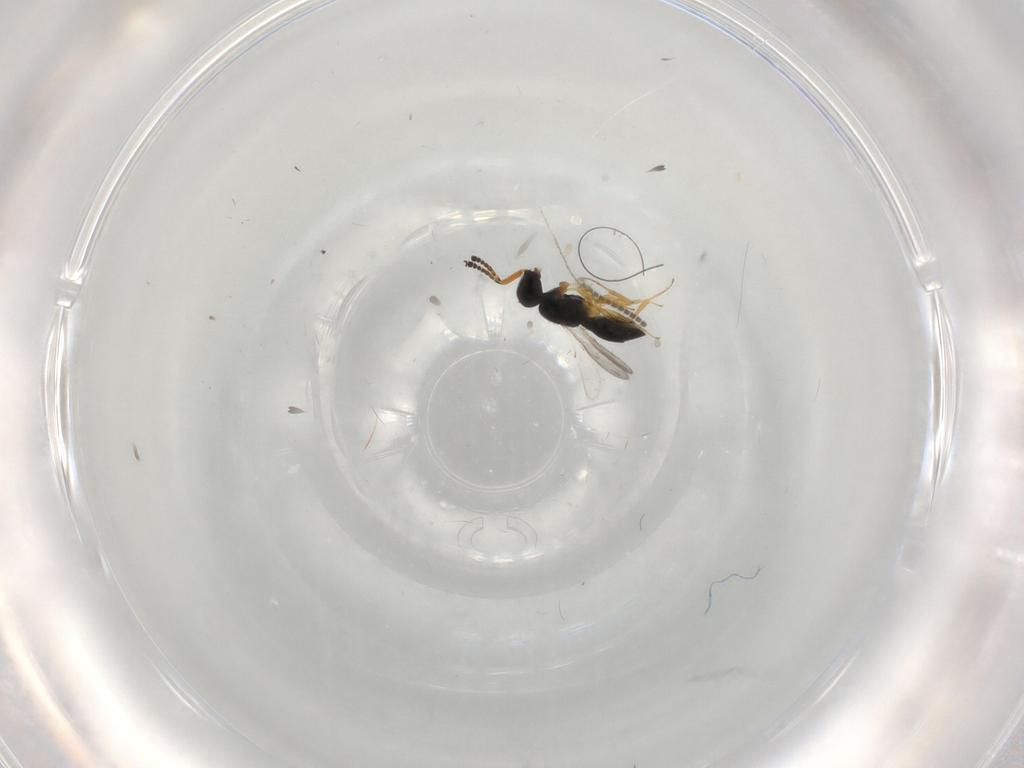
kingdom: Animalia
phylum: Arthropoda
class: Insecta
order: Hymenoptera
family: Scelionidae
